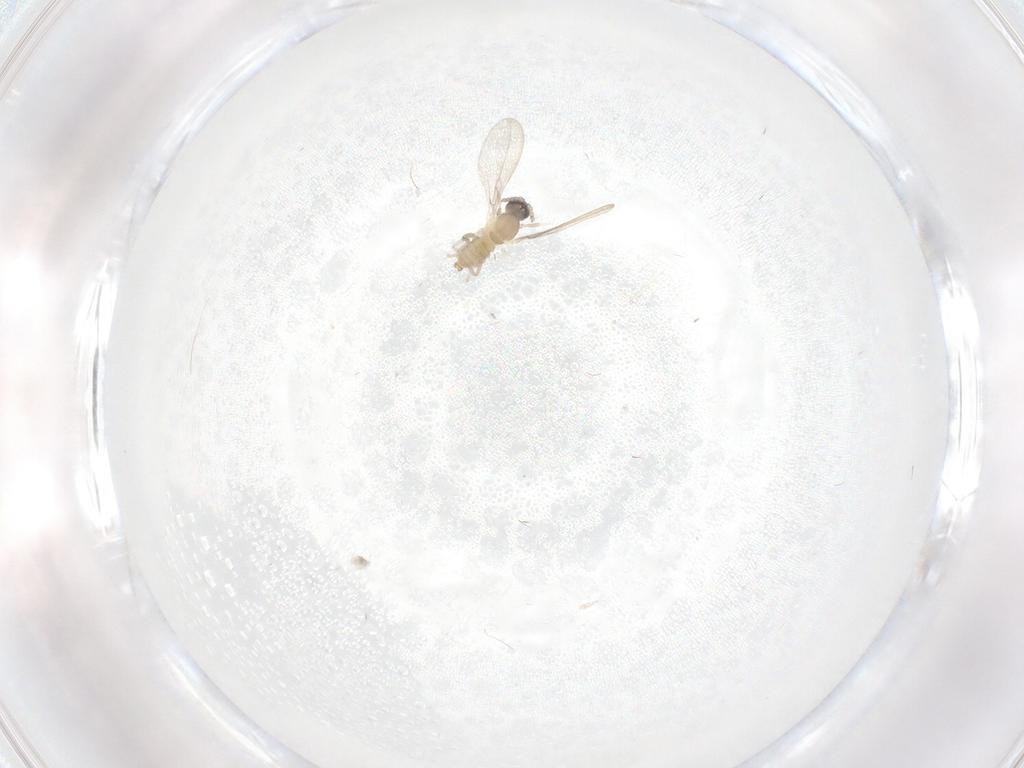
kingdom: Animalia
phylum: Arthropoda
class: Insecta
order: Diptera
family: Cecidomyiidae
